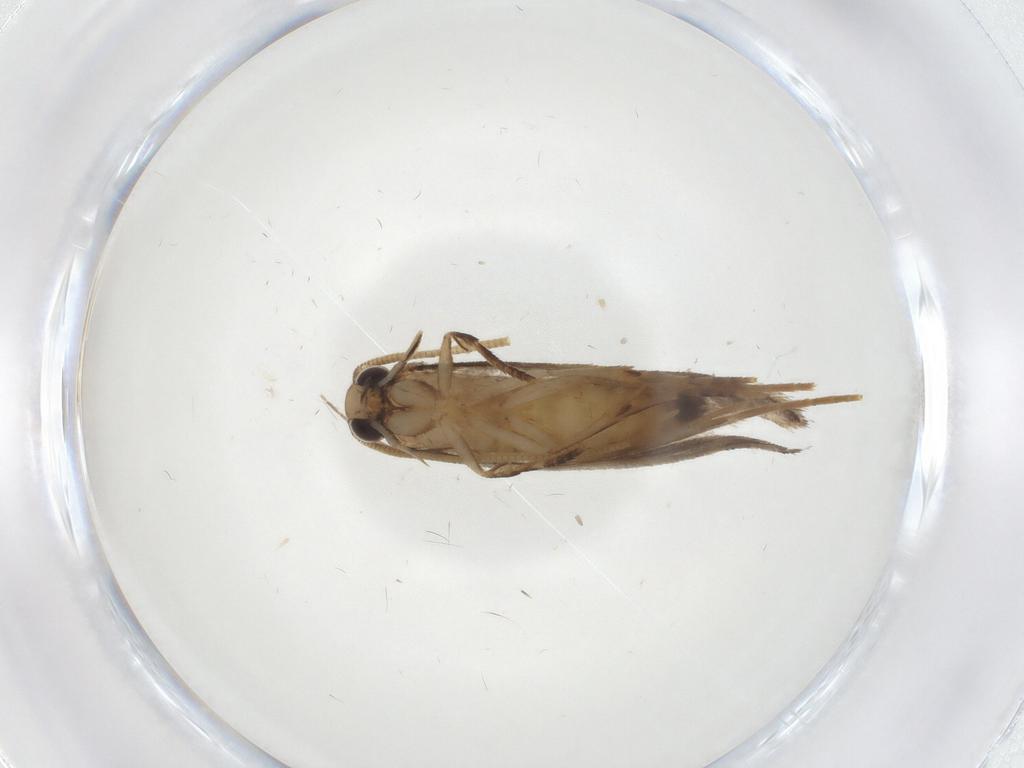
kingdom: Animalia
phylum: Arthropoda
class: Insecta
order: Lepidoptera
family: Tineidae
